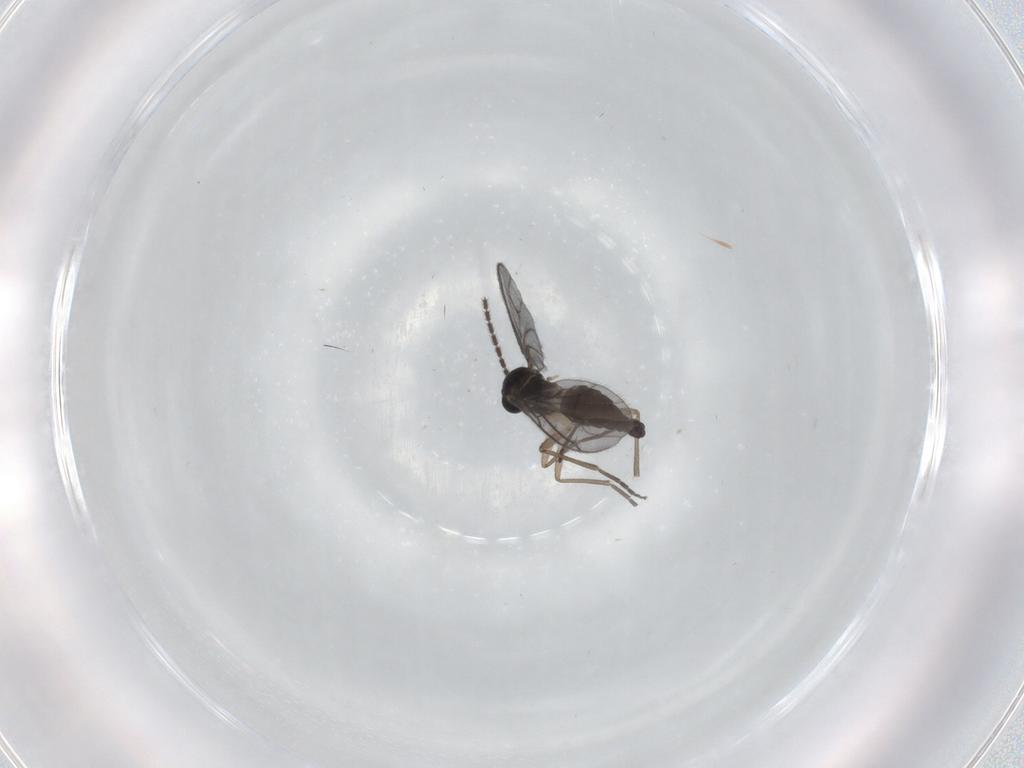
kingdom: Animalia
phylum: Arthropoda
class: Insecta
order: Diptera
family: Sciaridae
